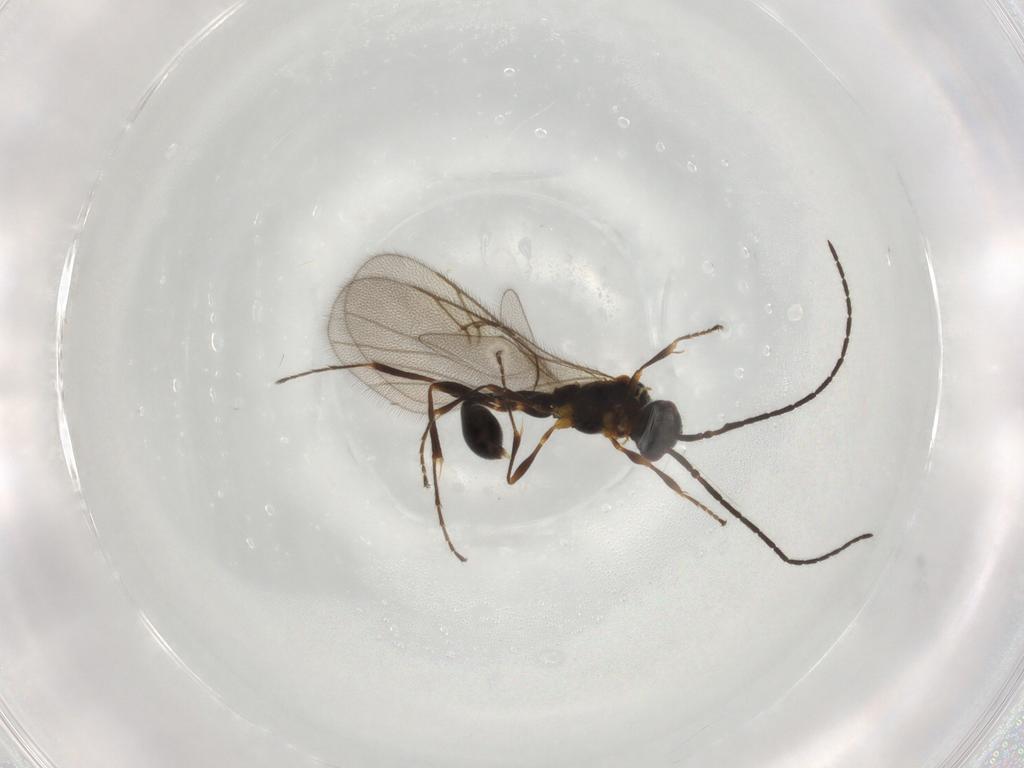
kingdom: Animalia
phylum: Arthropoda
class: Insecta
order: Hymenoptera
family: Diapriidae
